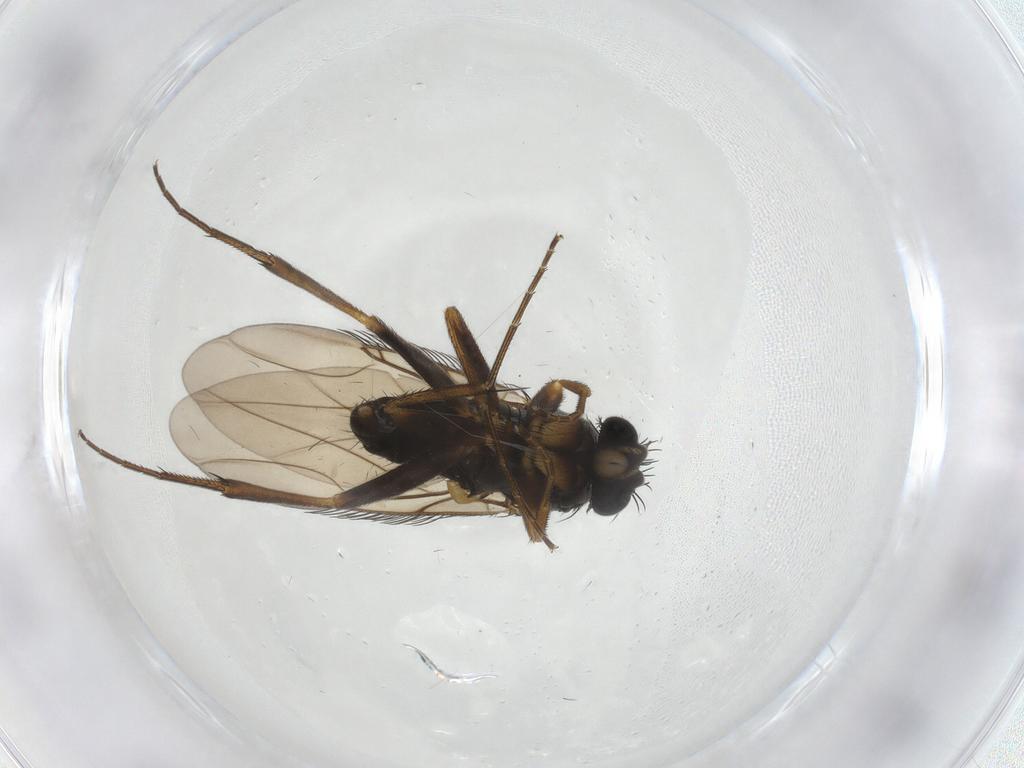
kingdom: Animalia
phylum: Arthropoda
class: Insecta
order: Diptera
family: Phoridae
